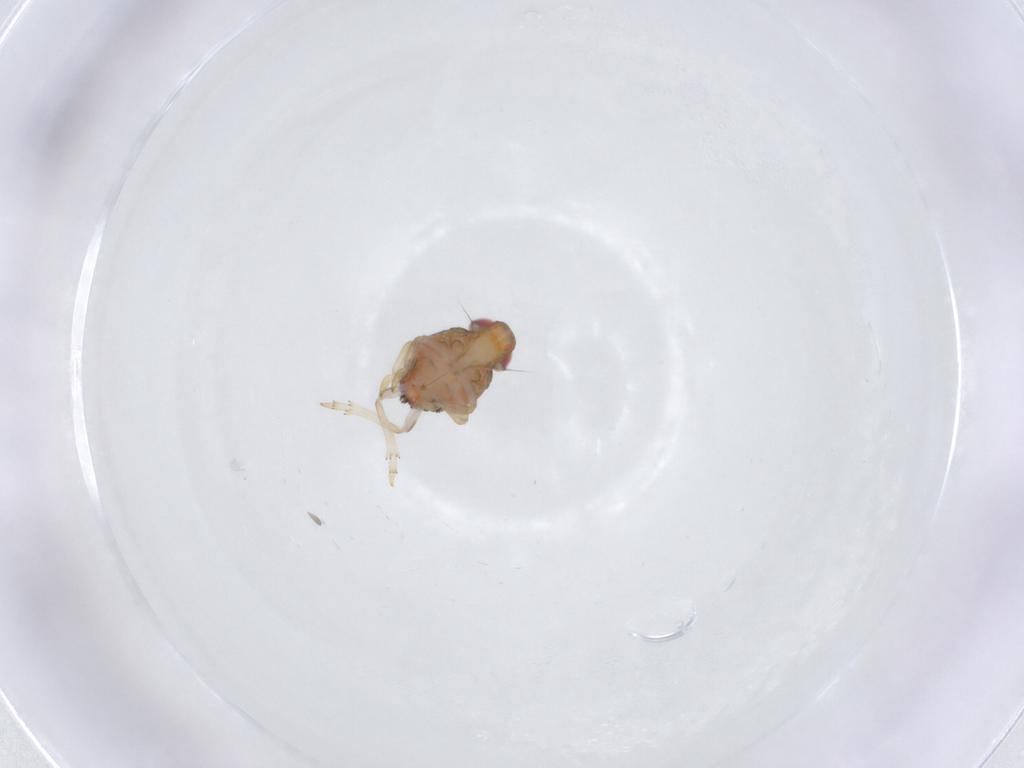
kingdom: Animalia
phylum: Arthropoda
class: Insecta
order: Hemiptera
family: Issidae
